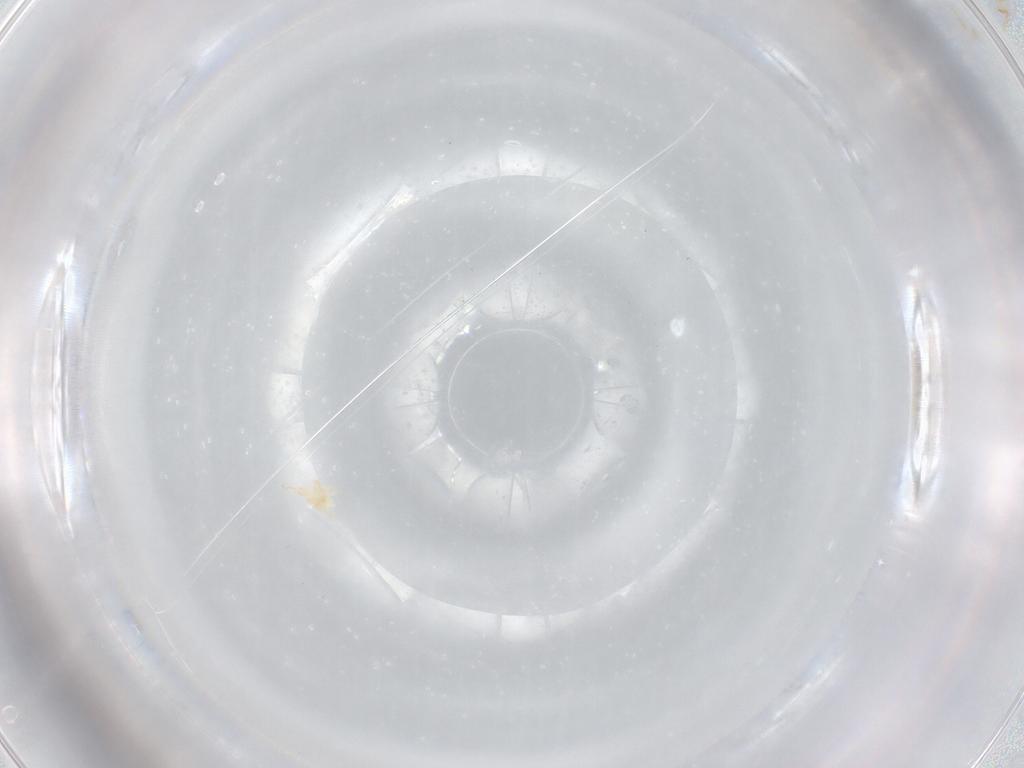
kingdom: Animalia
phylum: Arthropoda
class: Arachnida
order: Trombidiformes
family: Cunaxidae
